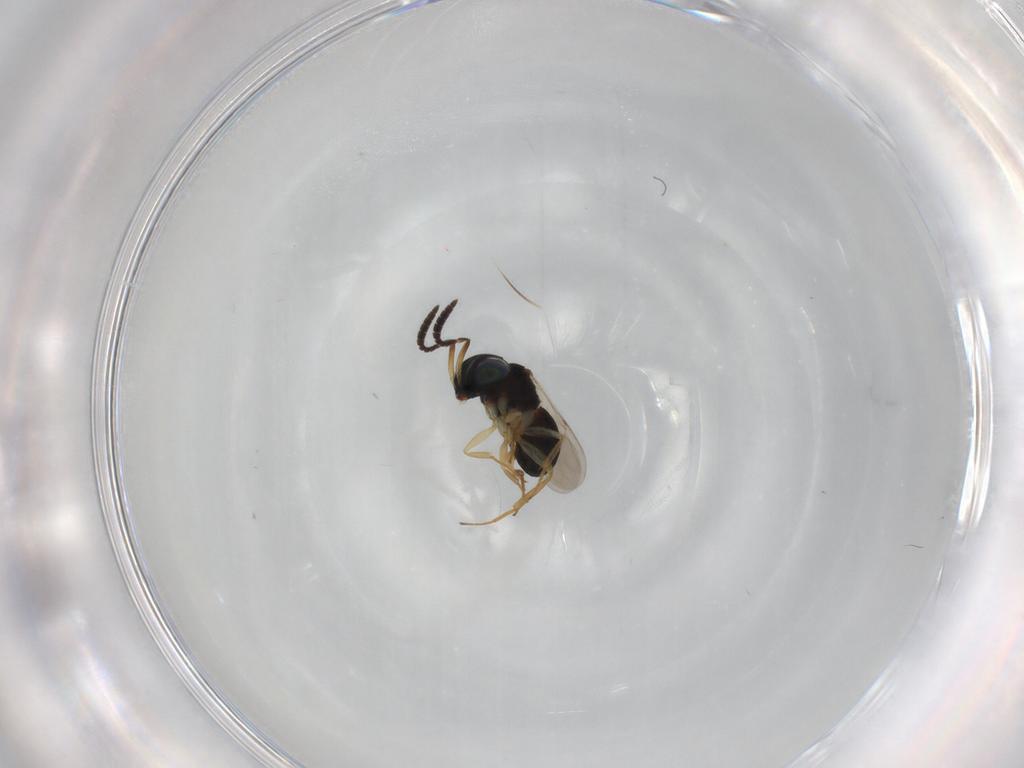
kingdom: Animalia
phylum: Arthropoda
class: Insecta
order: Hymenoptera
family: Scelionidae
